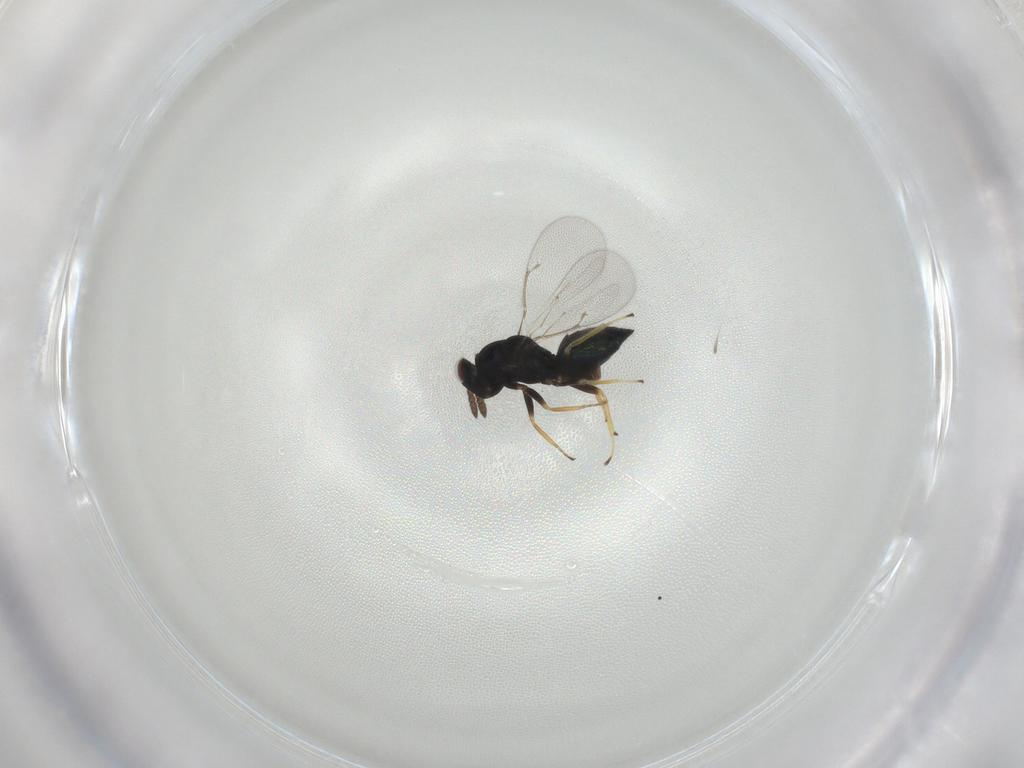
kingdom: Animalia
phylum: Arthropoda
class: Insecta
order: Hymenoptera
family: Eulophidae
